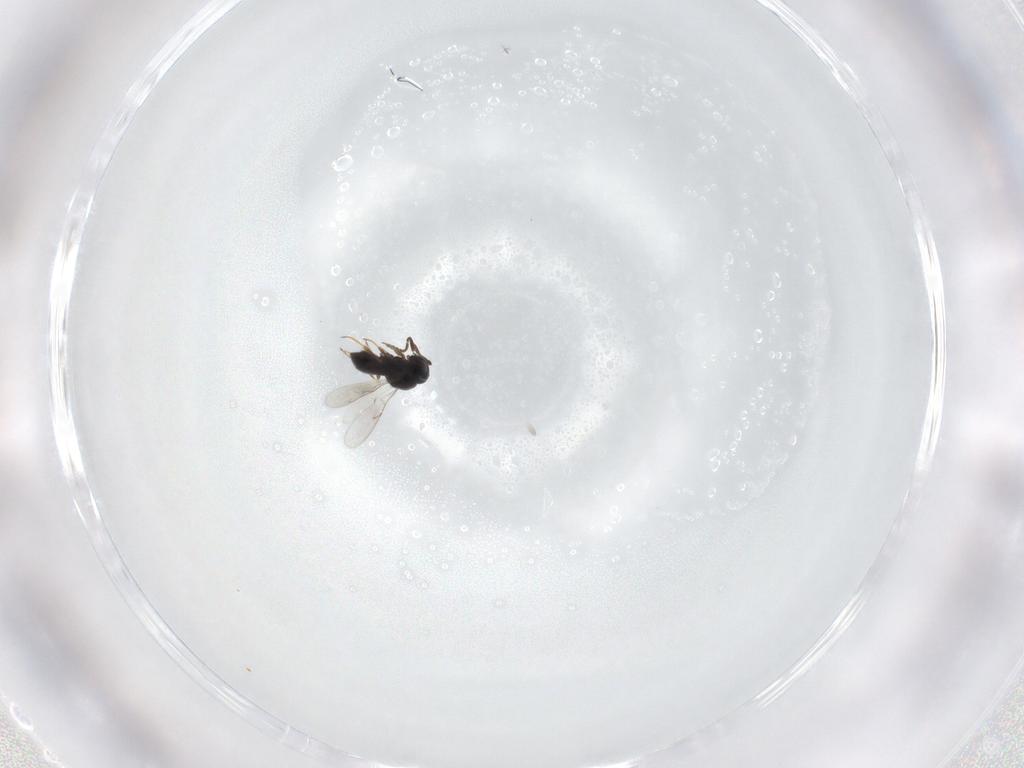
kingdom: Animalia
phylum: Arthropoda
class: Insecta
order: Hymenoptera
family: Scelionidae
